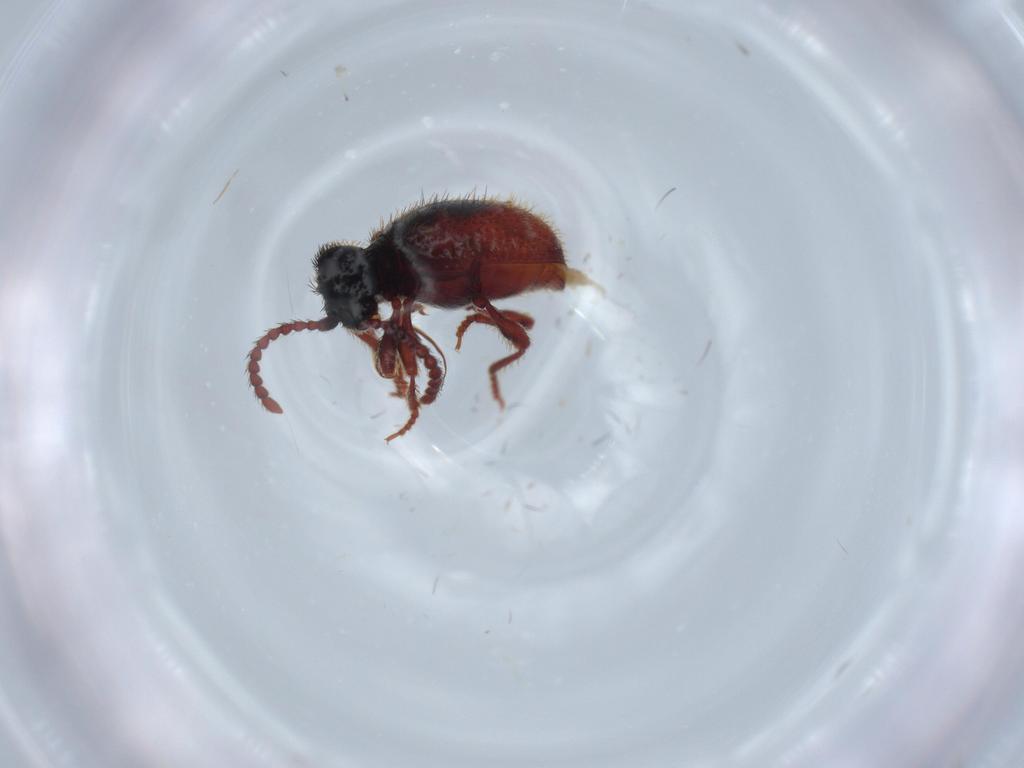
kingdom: Animalia
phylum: Arthropoda
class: Insecta
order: Coleoptera
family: Ptinidae
